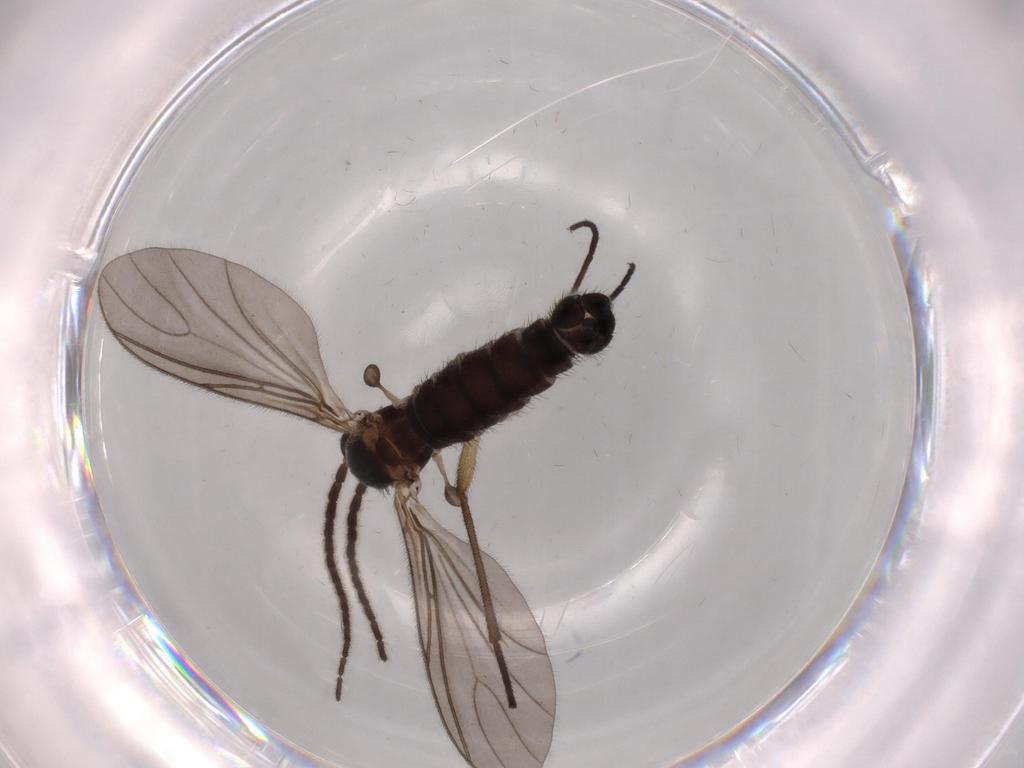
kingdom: Animalia
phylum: Arthropoda
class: Insecta
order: Diptera
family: Sciaridae
